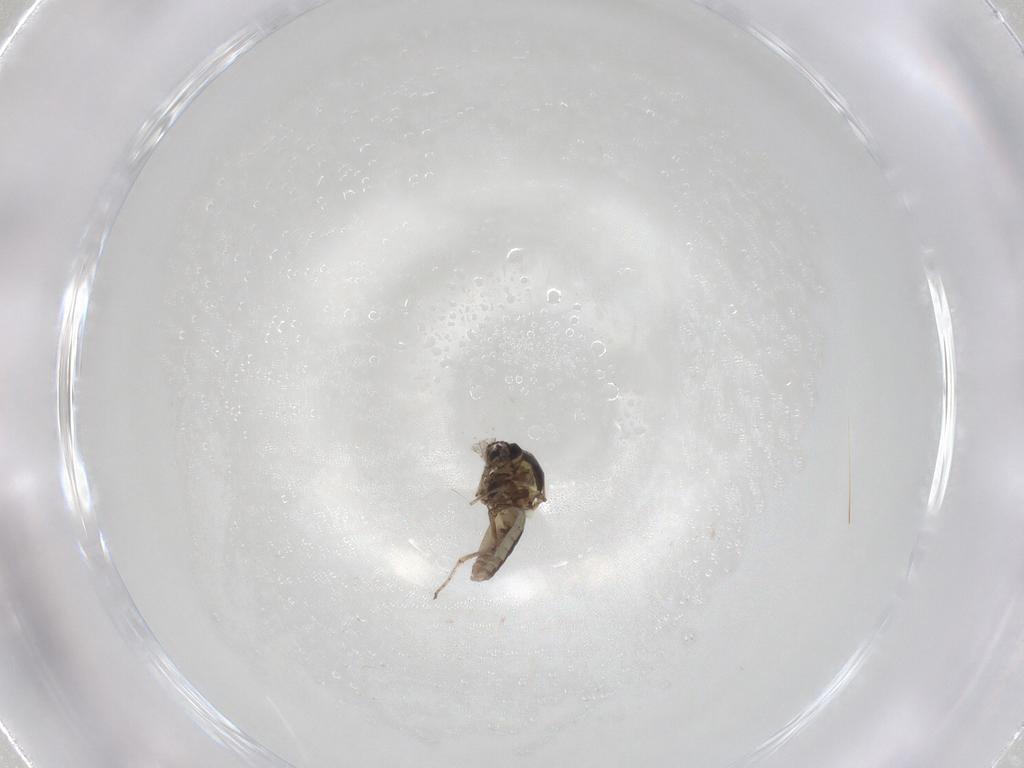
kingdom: Animalia
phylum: Arthropoda
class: Insecta
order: Diptera
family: Ceratopogonidae
